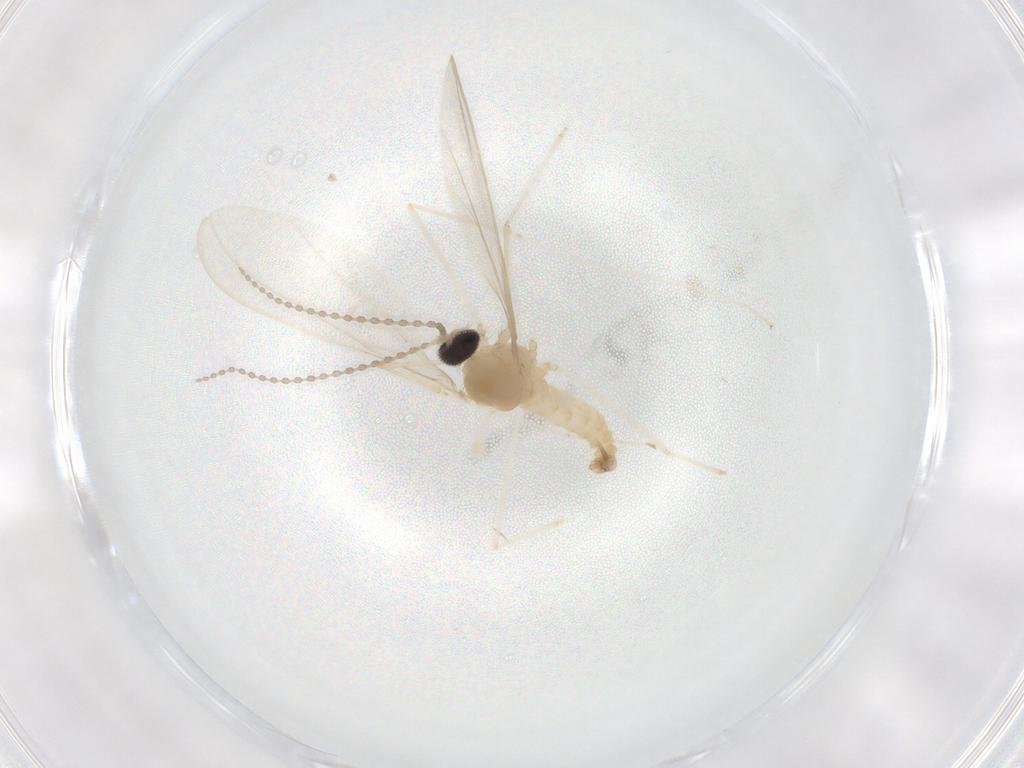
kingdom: Animalia
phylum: Arthropoda
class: Insecta
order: Diptera
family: Cecidomyiidae
